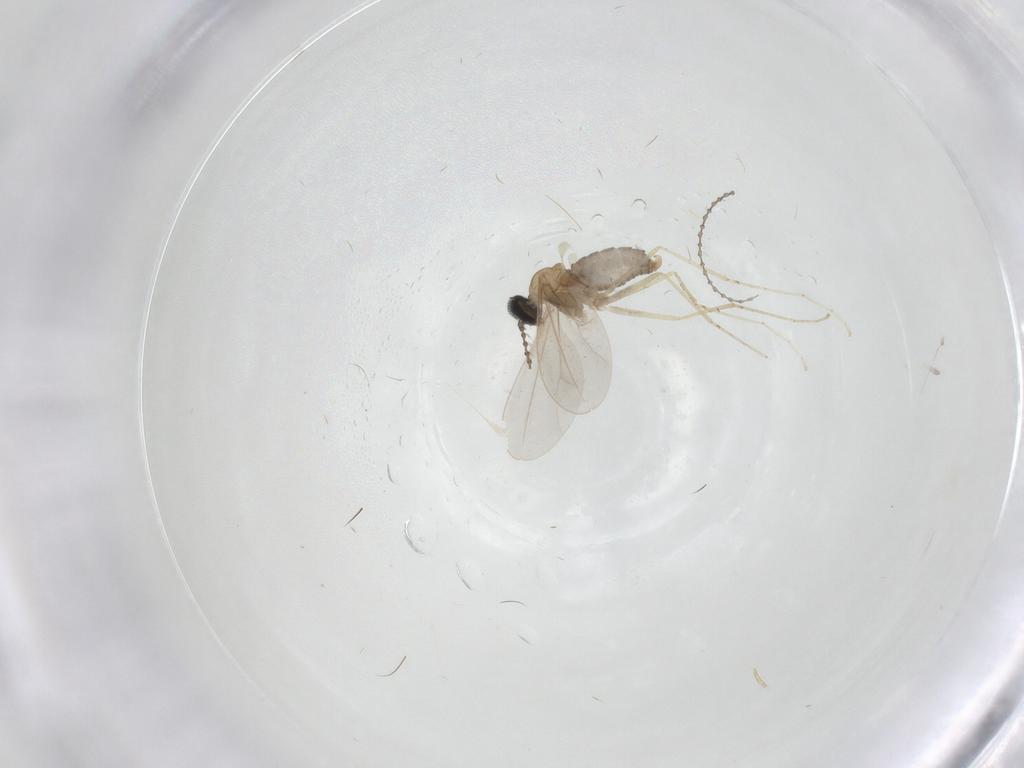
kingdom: Animalia
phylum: Arthropoda
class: Insecta
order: Diptera
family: Cecidomyiidae
